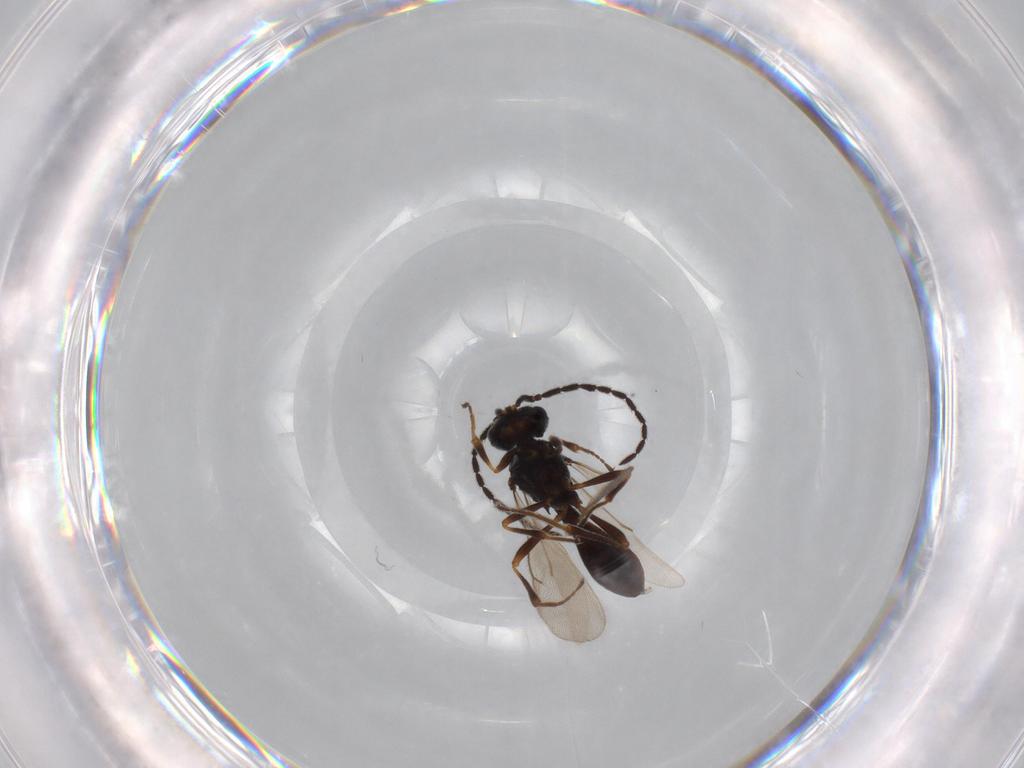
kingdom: Animalia
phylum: Arthropoda
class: Insecta
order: Hymenoptera
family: Scelionidae
